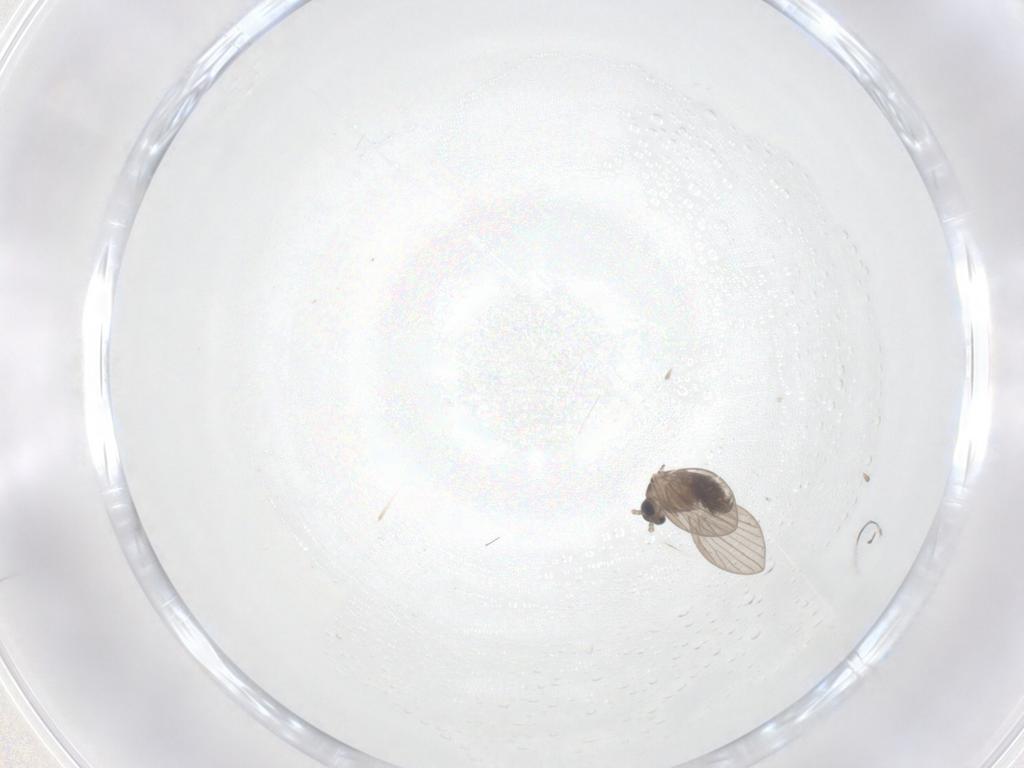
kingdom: Animalia
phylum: Arthropoda
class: Insecta
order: Diptera
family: Psychodidae
